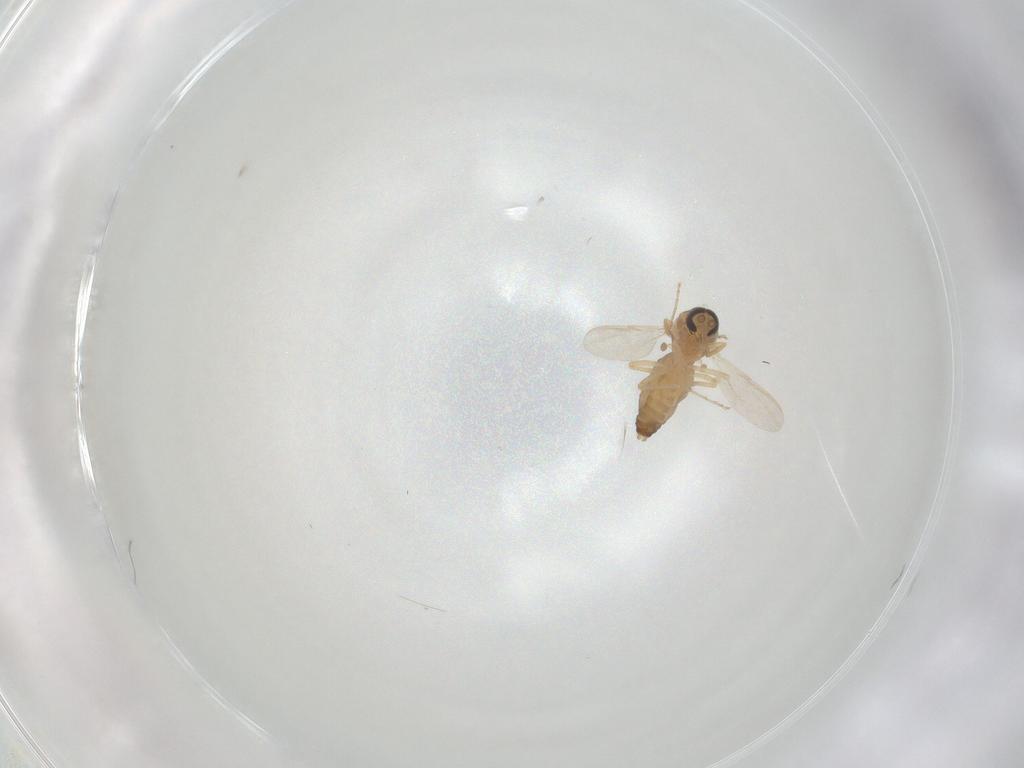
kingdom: Animalia
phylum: Arthropoda
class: Insecta
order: Diptera
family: Ceratopogonidae
